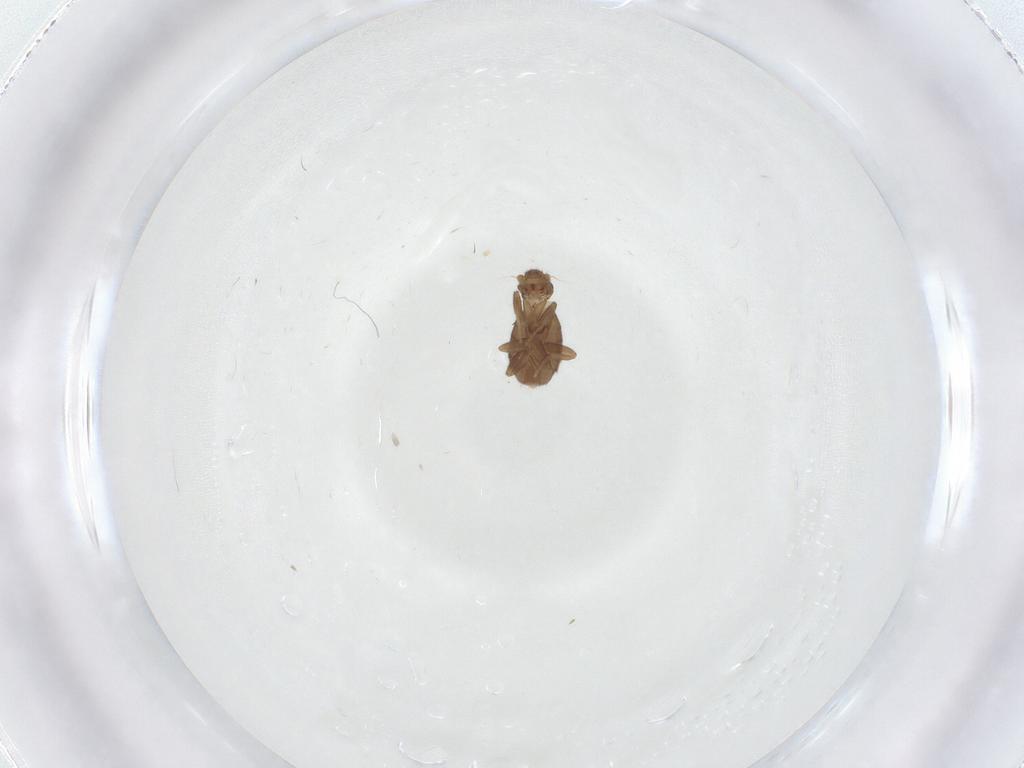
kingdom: Animalia
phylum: Arthropoda
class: Insecta
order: Diptera
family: Phoridae
